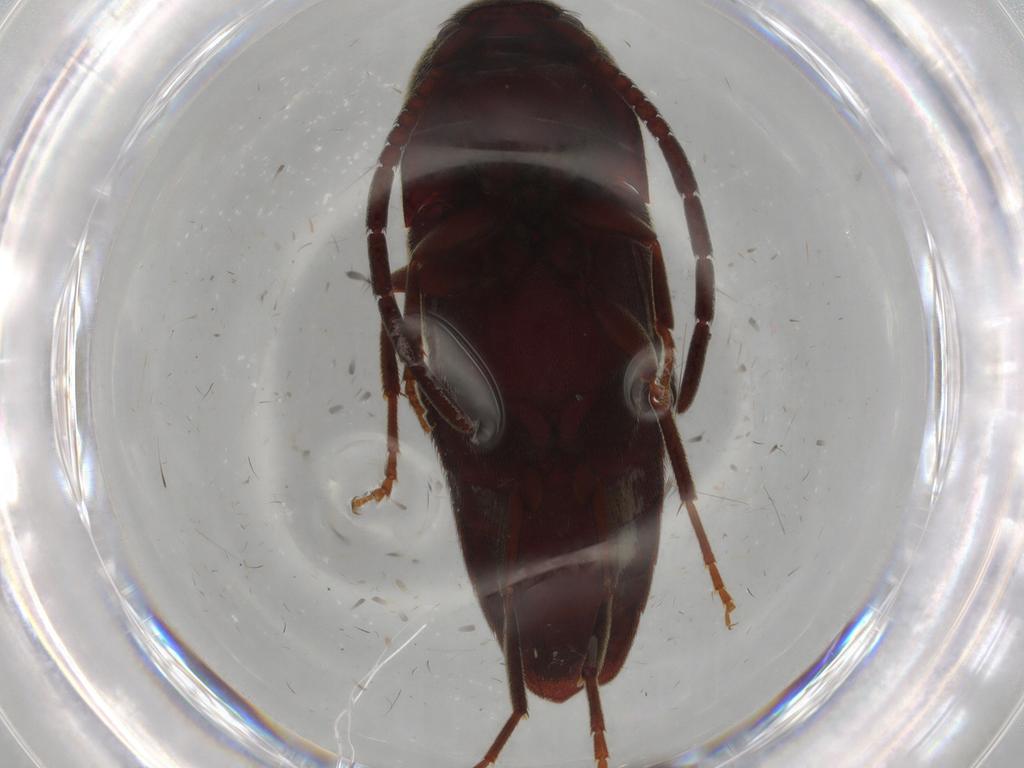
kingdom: Animalia
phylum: Arthropoda
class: Insecta
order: Coleoptera
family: Eucnemidae
